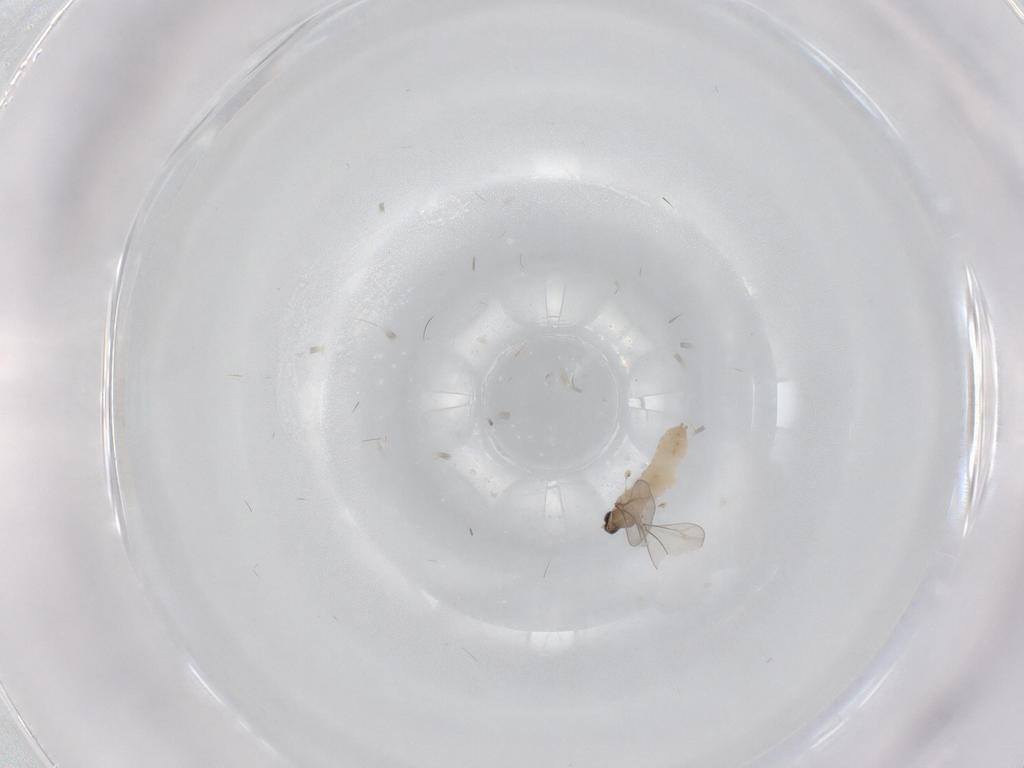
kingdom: Animalia
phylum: Arthropoda
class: Insecta
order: Diptera
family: Cecidomyiidae
